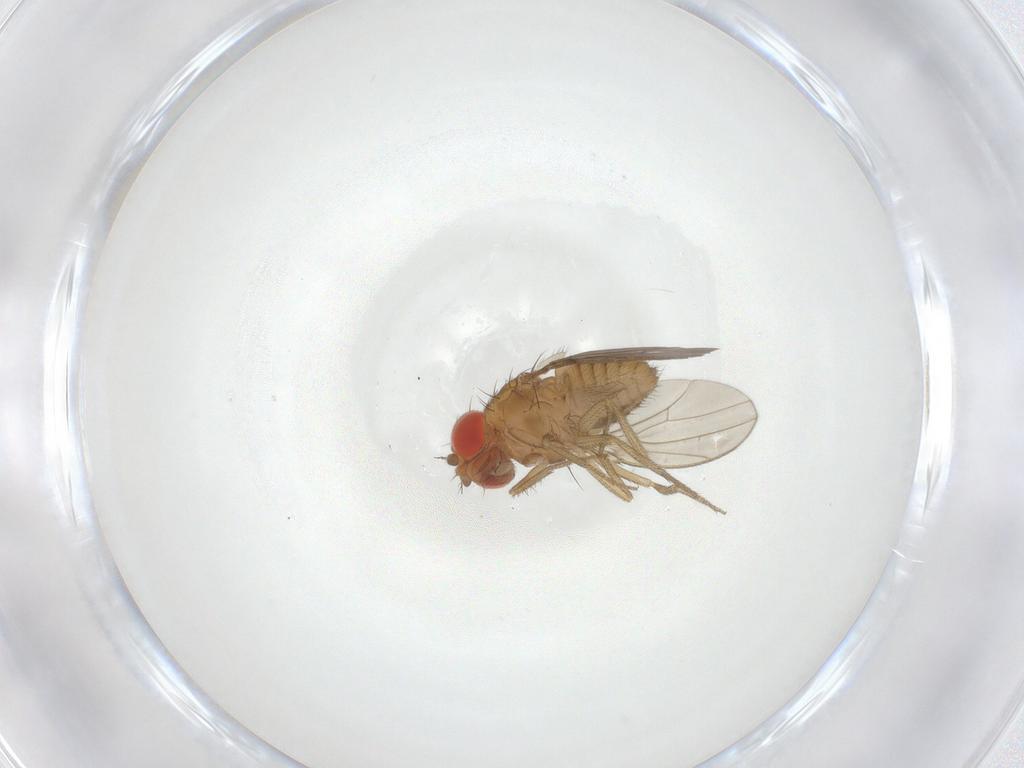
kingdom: Animalia
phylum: Arthropoda
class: Insecta
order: Diptera
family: Drosophilidae
